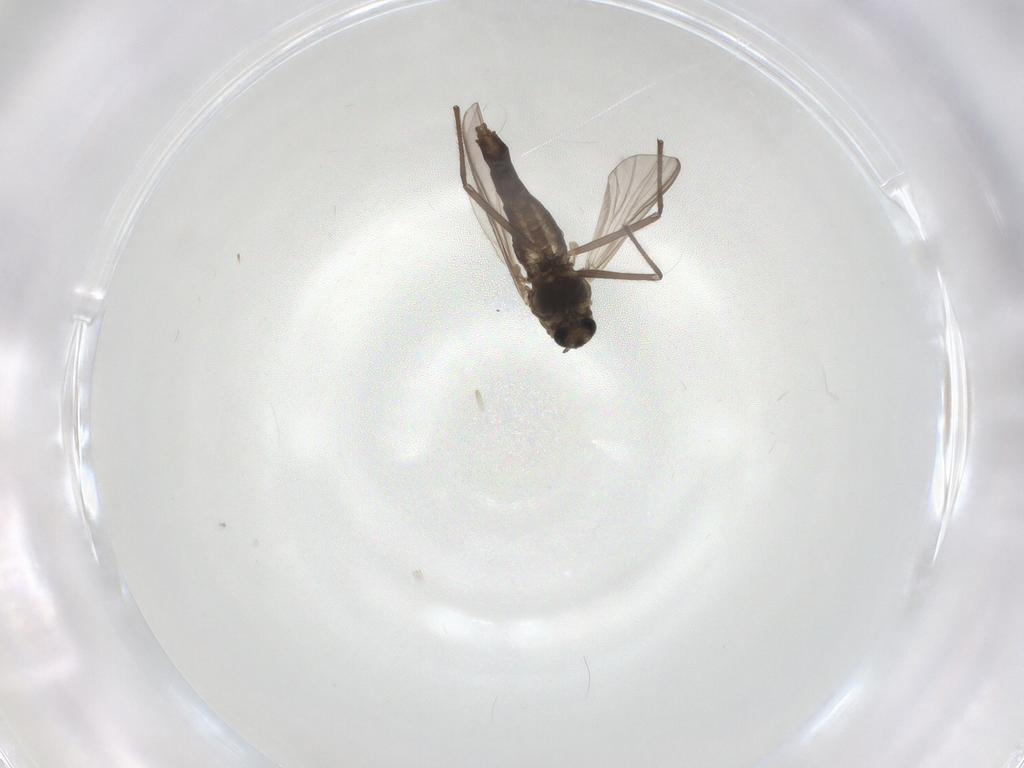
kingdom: Animalia
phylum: Arthropoda
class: Insecta
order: Diptera
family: Chironomidae
